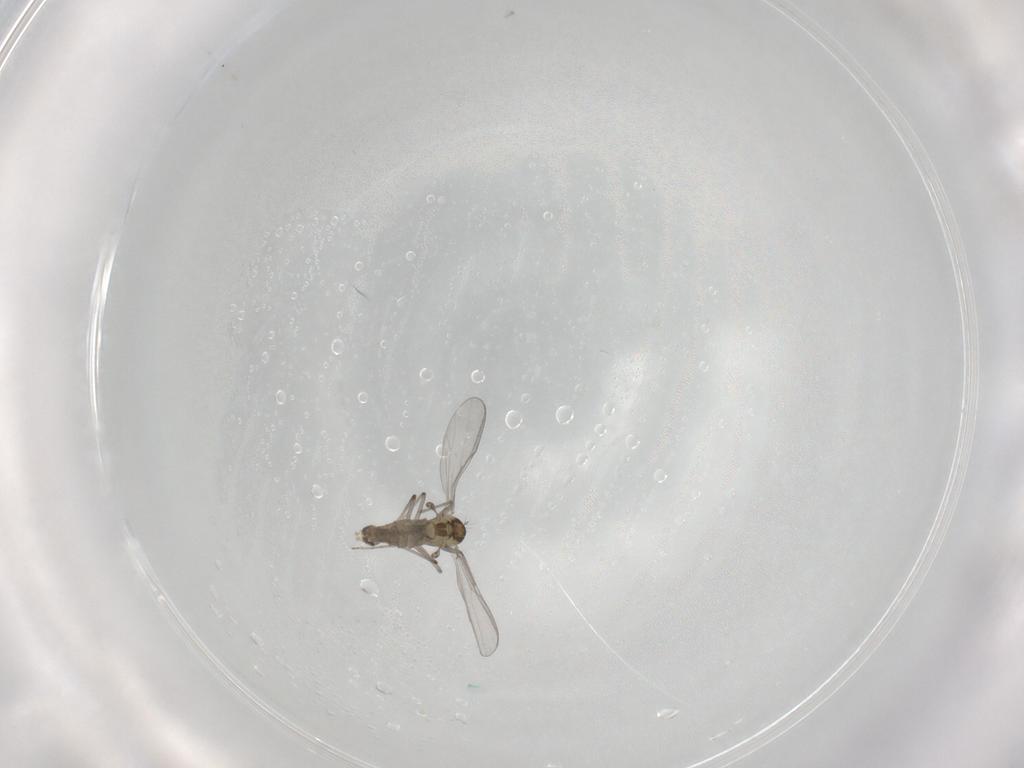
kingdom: Animalia
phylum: Arthropoda
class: Insecta
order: Diptera
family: Chironomidae
